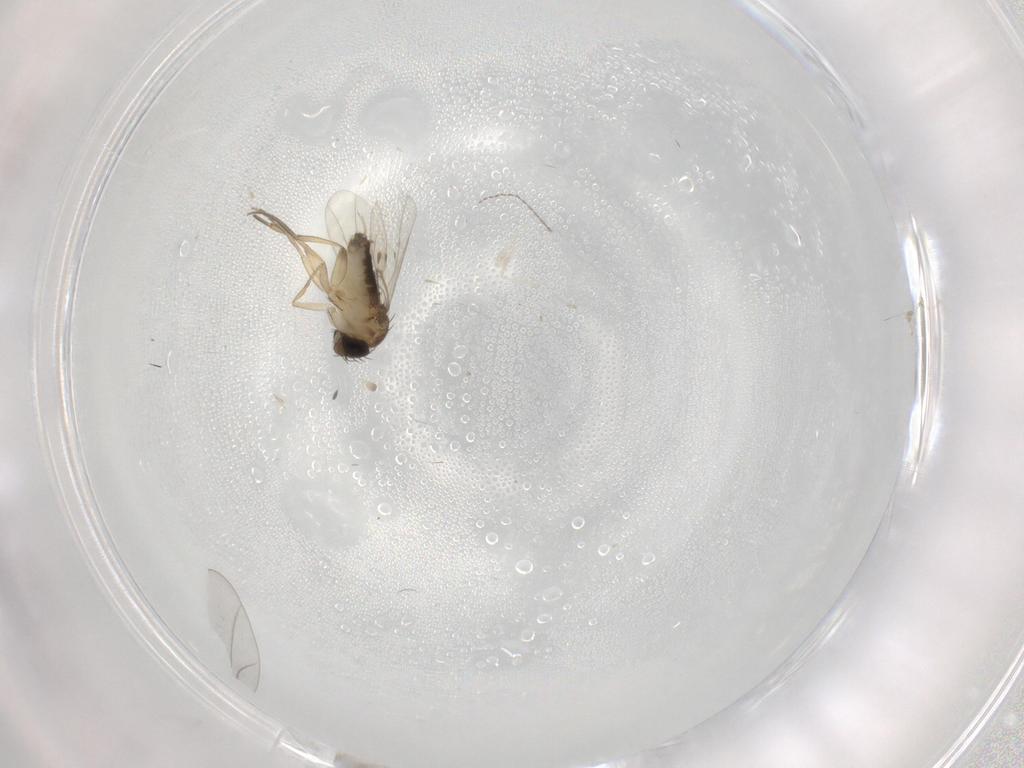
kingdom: Animalia
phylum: Arthropoda
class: Insecta
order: Diptera
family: Phoridae
